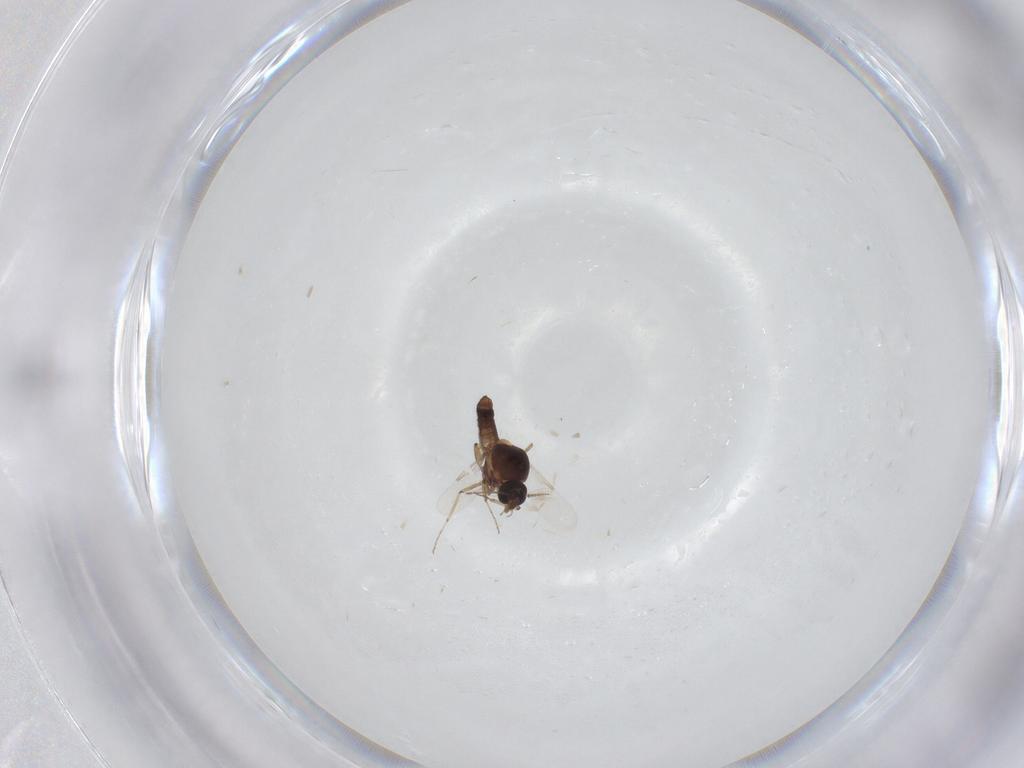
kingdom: Animalia
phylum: Arthropoda
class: Insecta
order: Diptera
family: Ceratopogonidae
